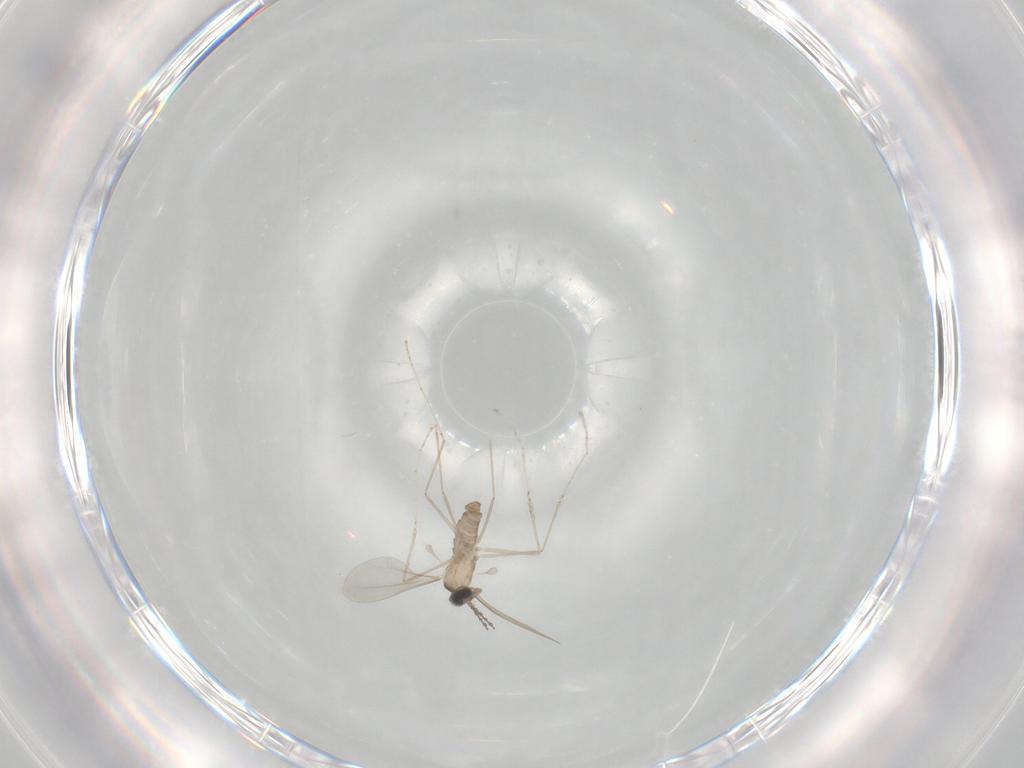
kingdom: Animalia
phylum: Arthropoda
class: Insecta
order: Diptera
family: Cecidomyiidae
